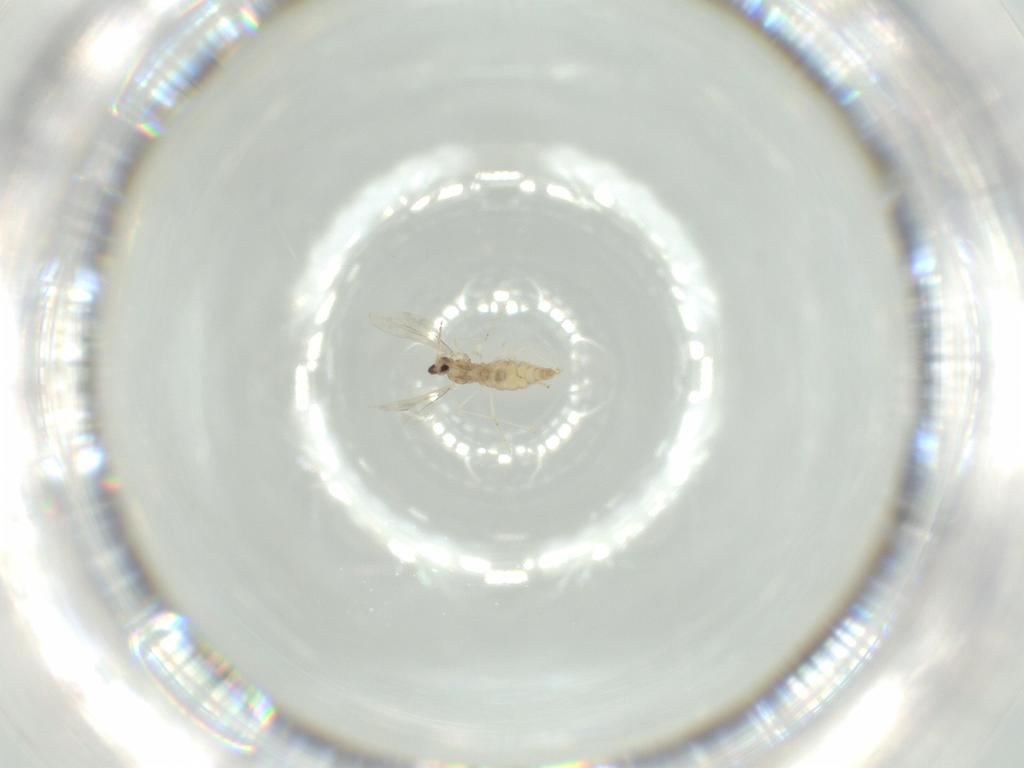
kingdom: Animalia
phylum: Arthropoda
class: Insecta
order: Diptera
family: Cecidomyiidae
